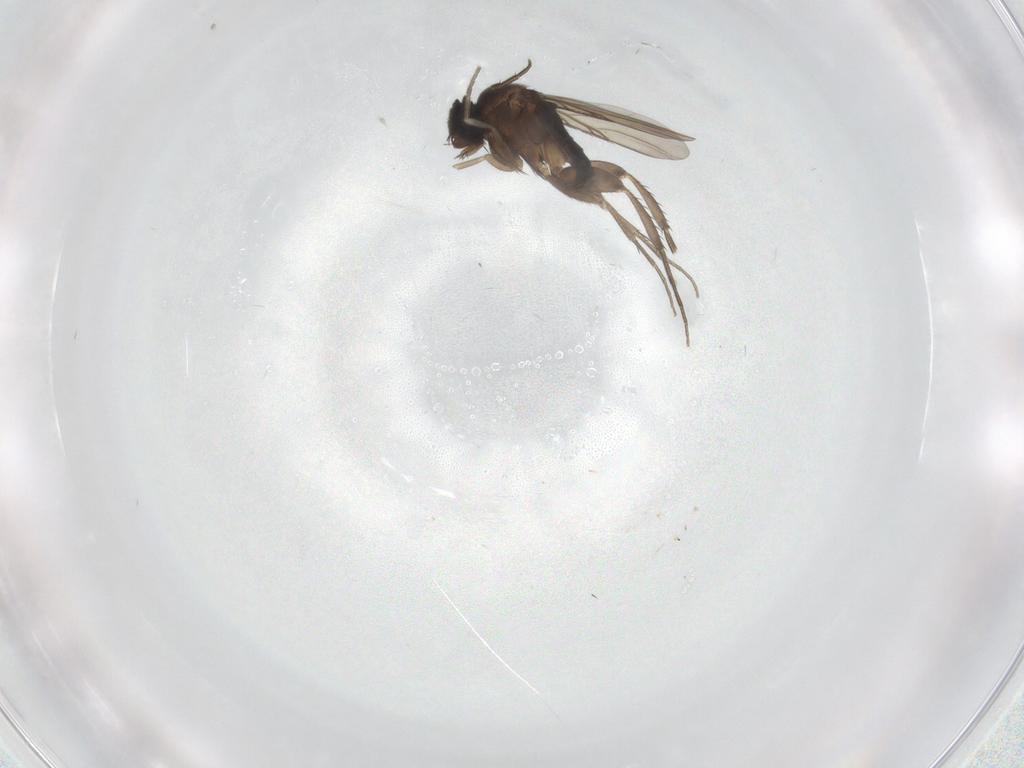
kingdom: Animalia
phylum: Arthropoda
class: Insecta
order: Diptera
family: Phoridae
